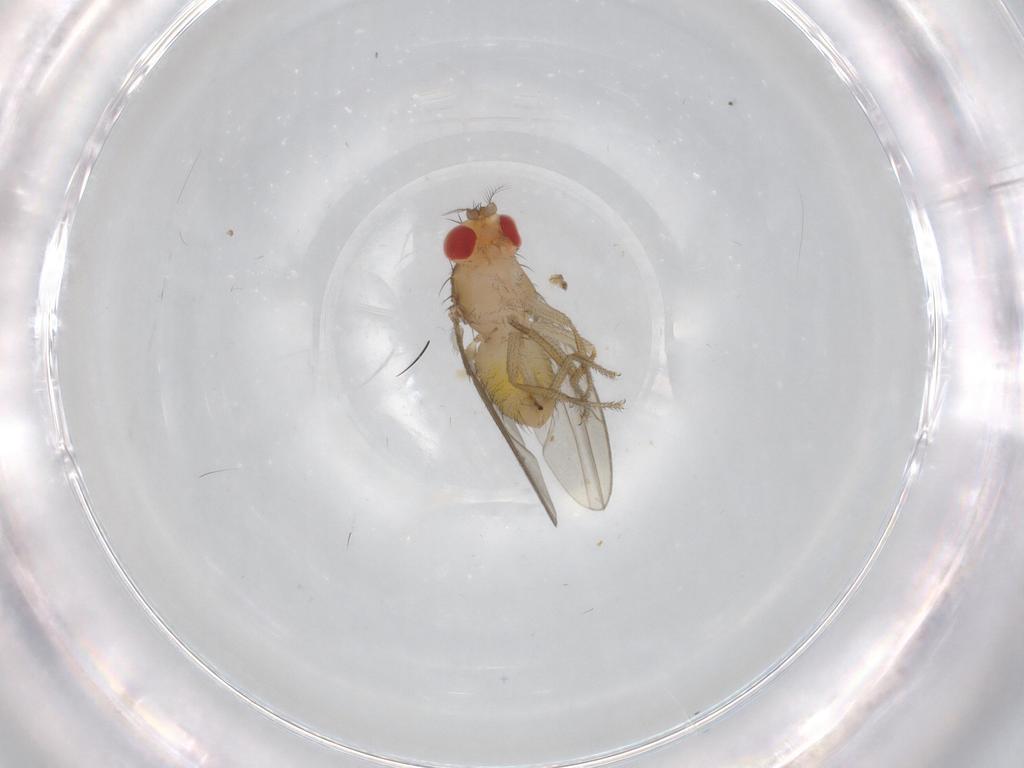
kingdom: Animalia
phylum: Arthropoda
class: Insecta
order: Diptera
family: Drosophilidae
